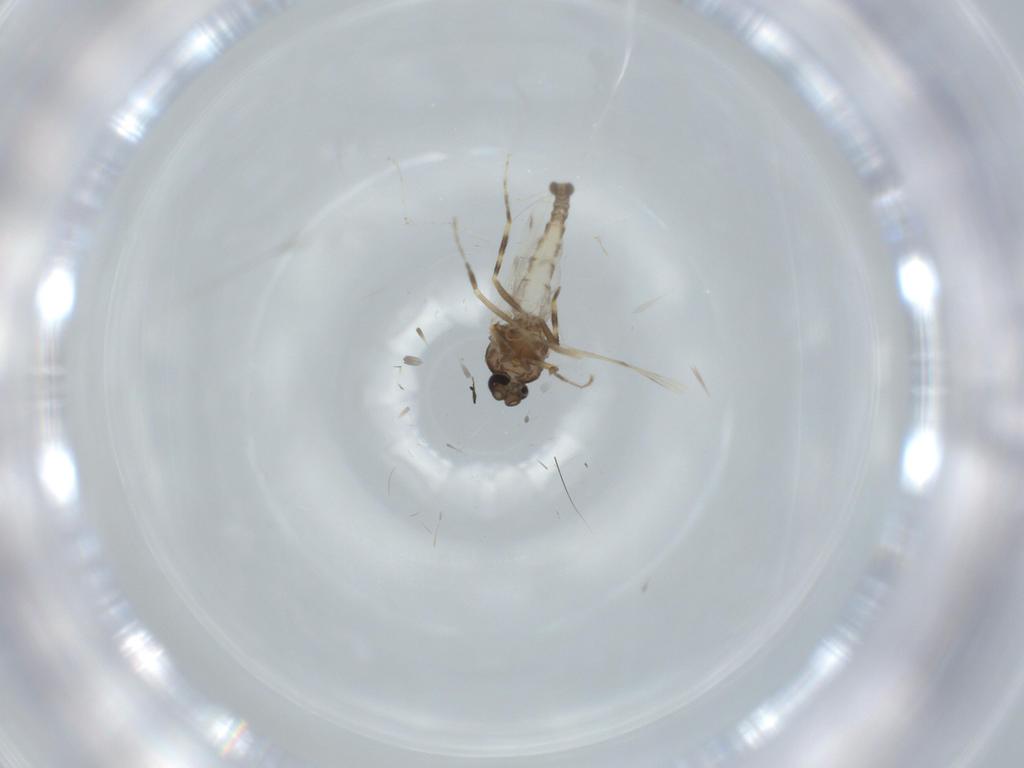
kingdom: Animalia
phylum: Arthropoda
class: Insecta
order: Diptera
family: Ceratopogonidae
